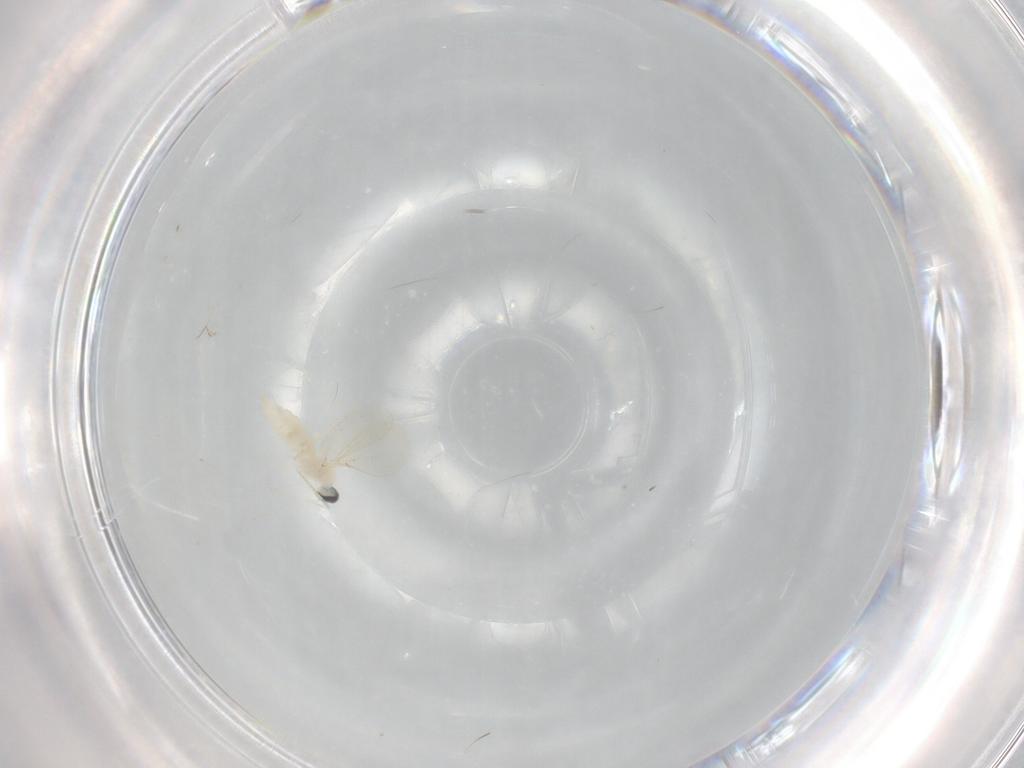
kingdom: Animalia
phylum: Arthropoda
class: Insecta
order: Diptera
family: Cecidomyiidae
